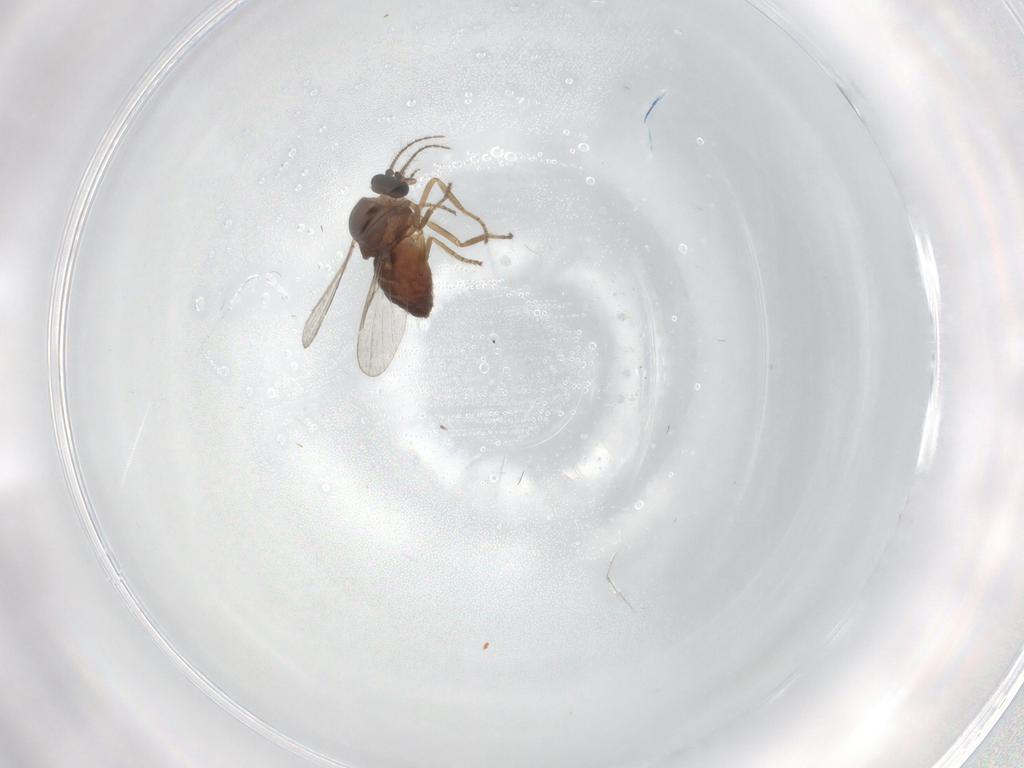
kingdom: Animalia
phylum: Arthropoda
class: Insecta
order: Diptera
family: Ceratopogonidae
